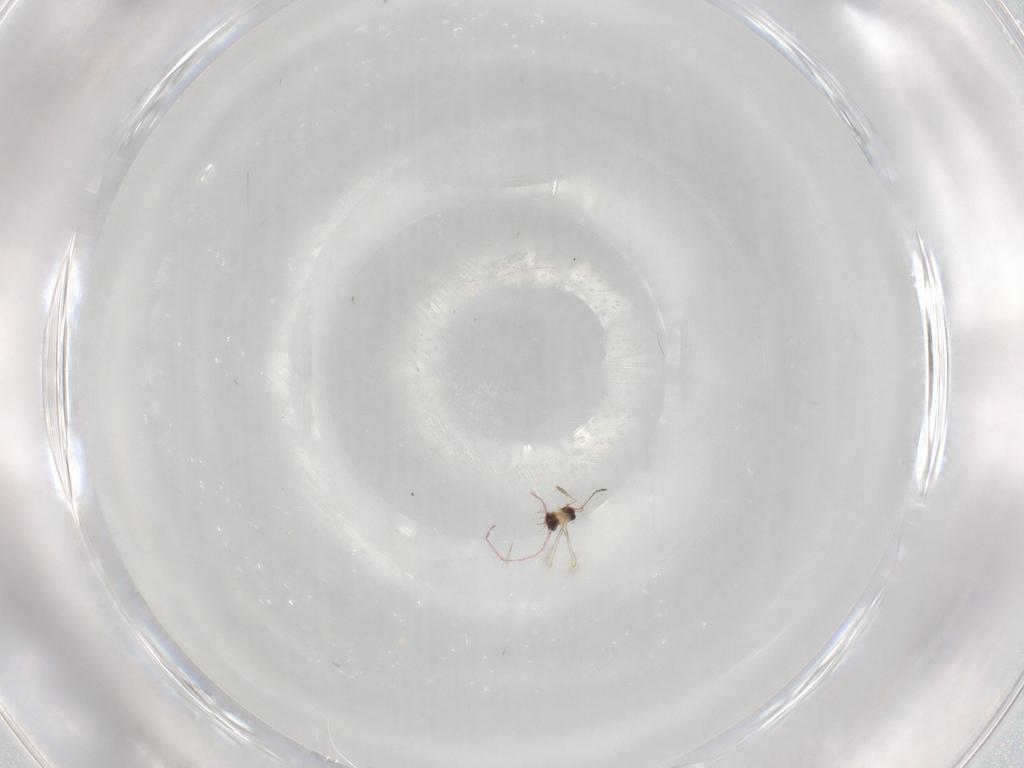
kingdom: Animalia
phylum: Arthropoda
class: Insecta
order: Hymenoptera
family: Mymaridae
